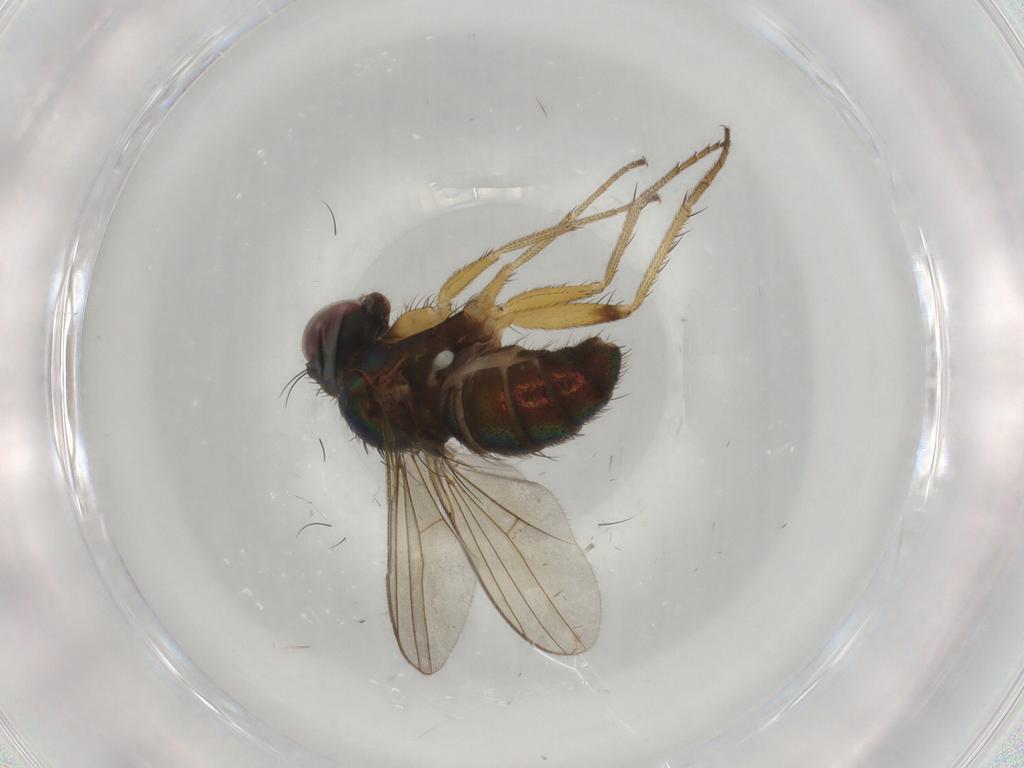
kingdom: Animalia
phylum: Arthropoda
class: Insecta
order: Diptera
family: Dolichopodidae
